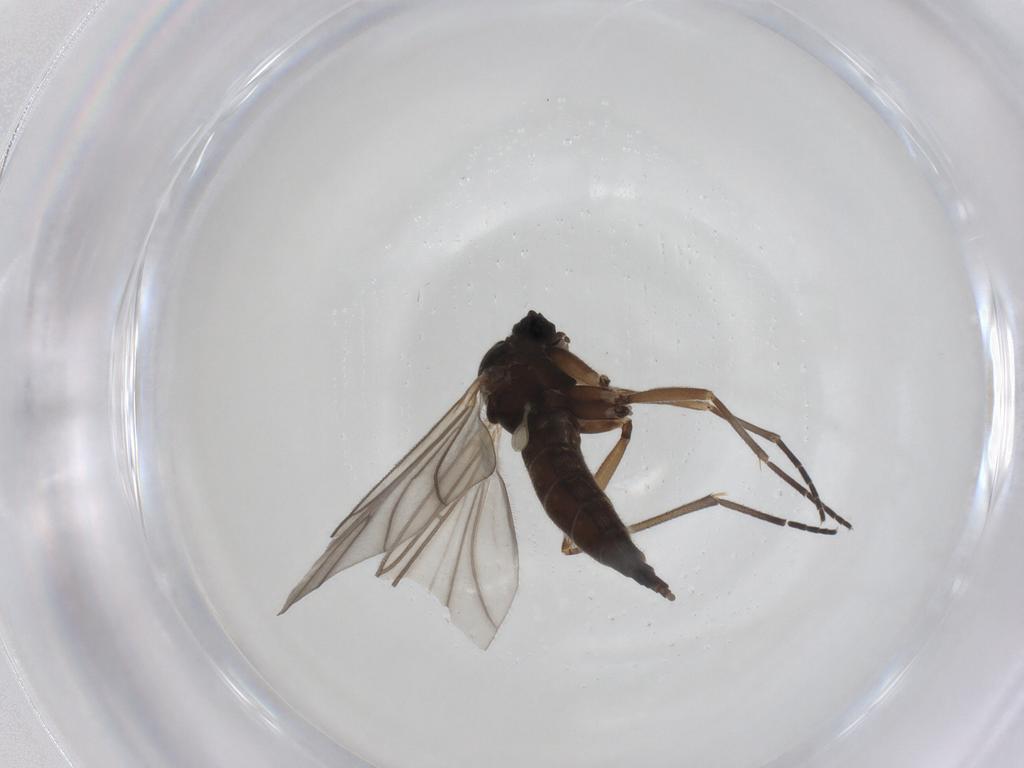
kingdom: Animalia
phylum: Arthropoda
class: Insecta
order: Diptera
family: Sciaridae
